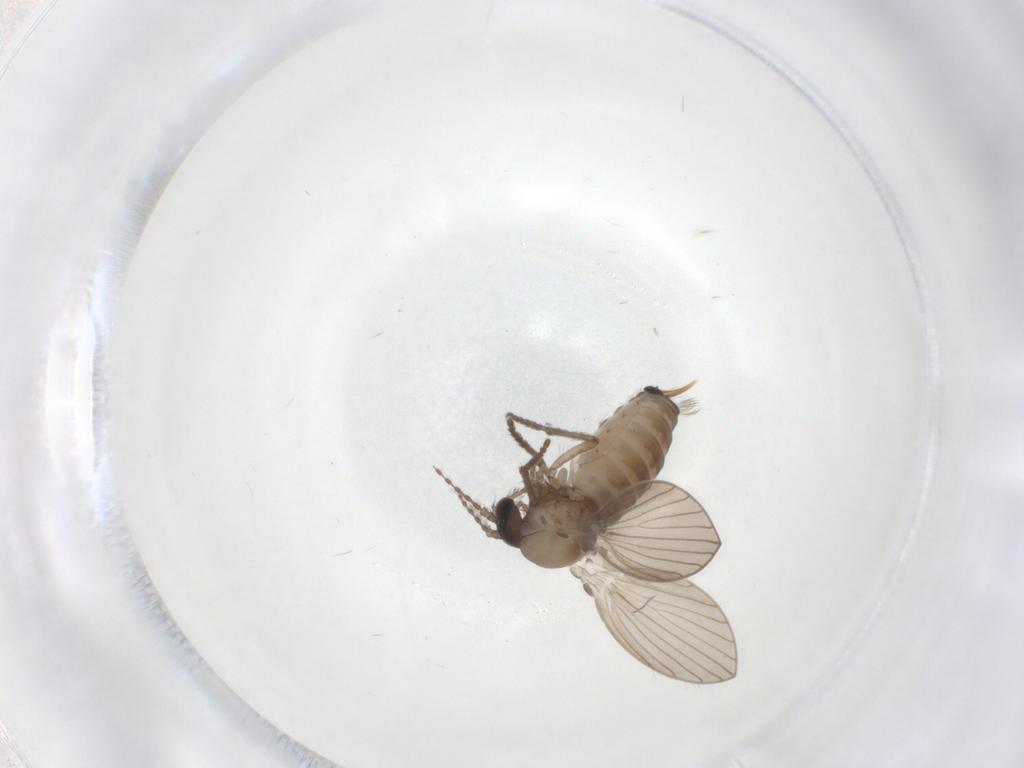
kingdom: Animalia
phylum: Arthropoda
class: Insecta
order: Diptera
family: Psychodidae
